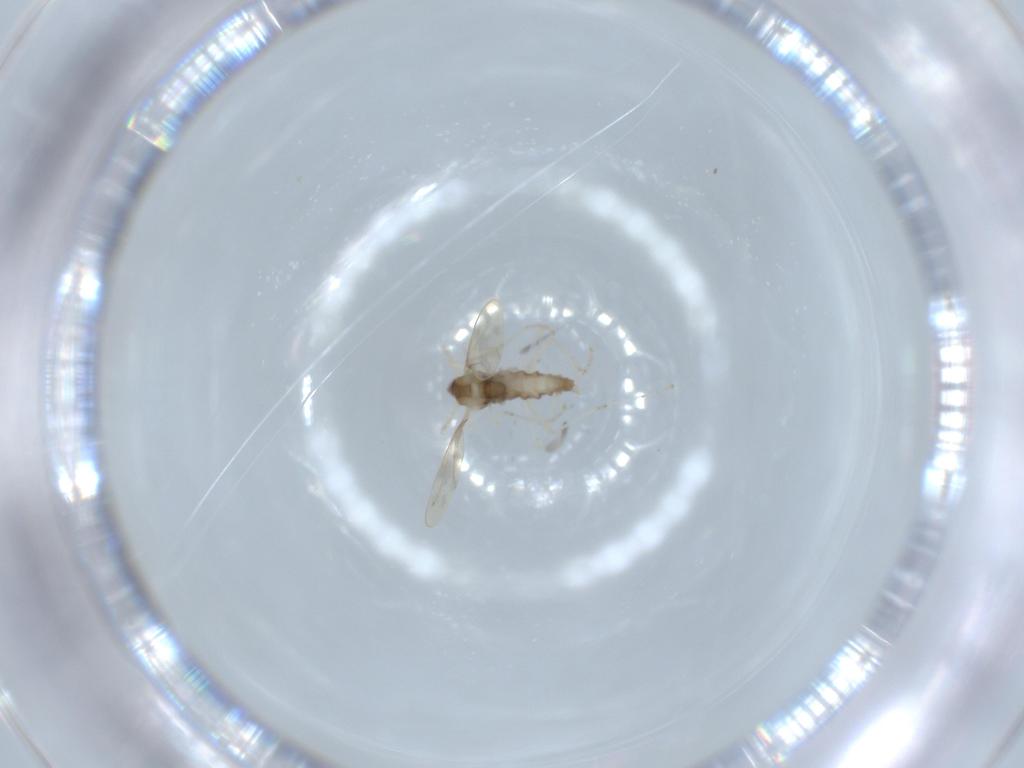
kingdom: Animalia
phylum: Arthropoda
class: Insecta
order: Diptera
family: Cecidomyiidae
